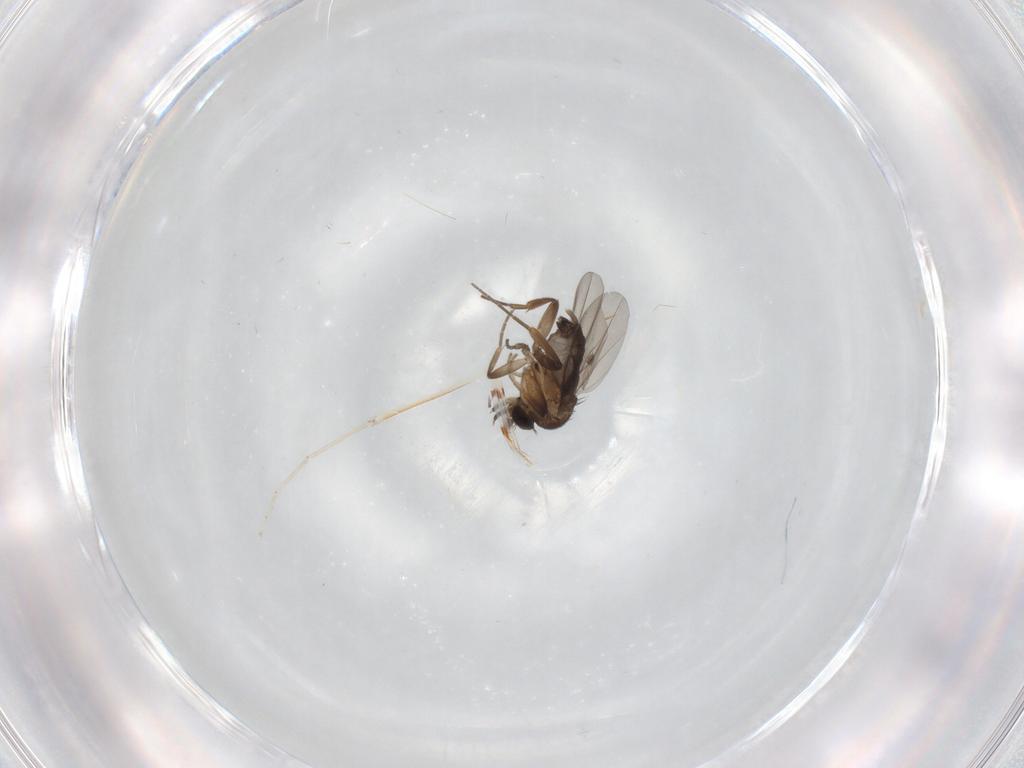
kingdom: Animalia
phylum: Arthropoda
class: Insecta
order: Diptera
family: Phoridae
